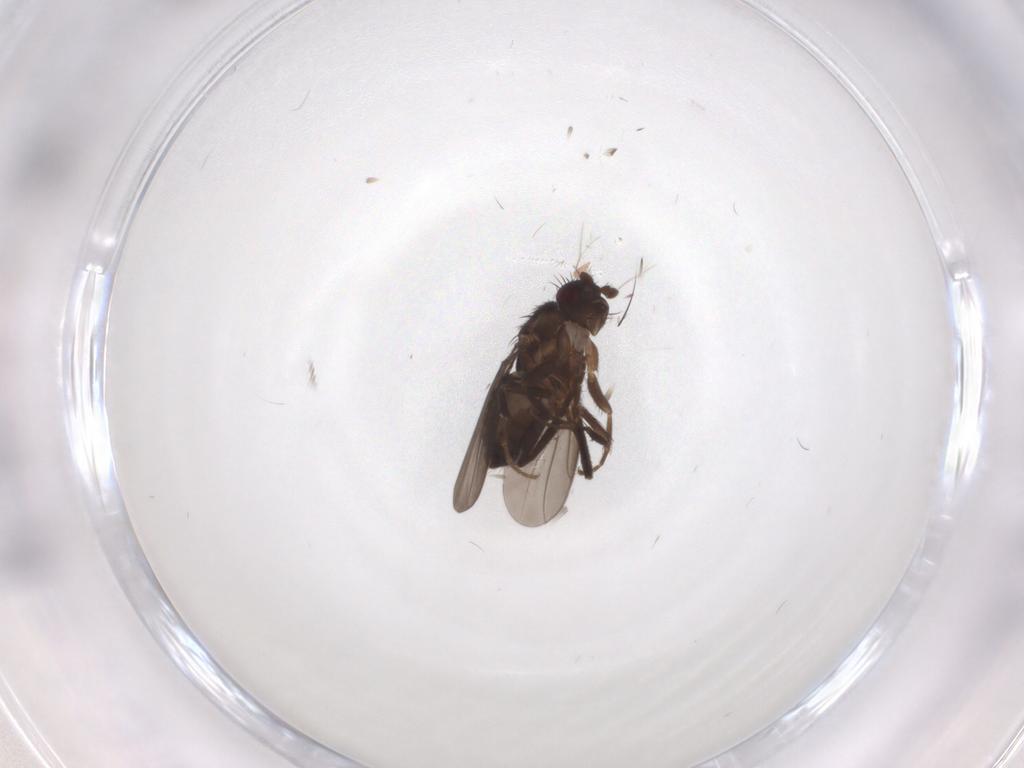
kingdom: Animalia
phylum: Arthropoda
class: Insecta
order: Diptera
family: Sphaeroceridae
